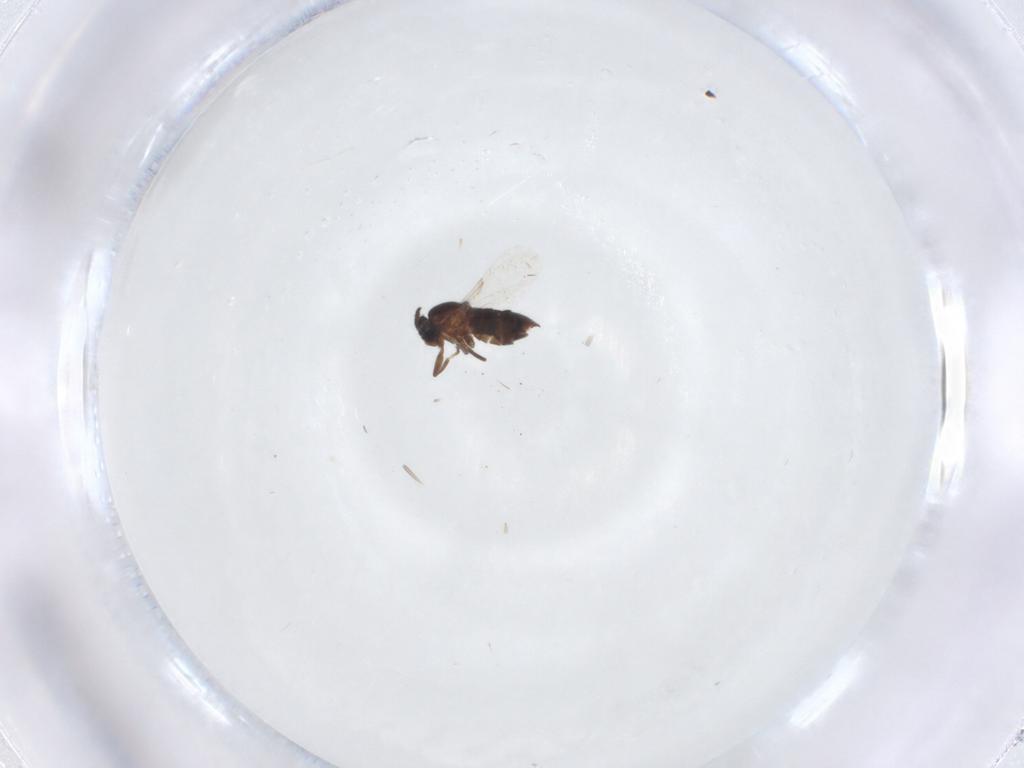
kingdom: Animalia
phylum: Arthropoda
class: Insecta
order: Diptera
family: Scatopsidae
